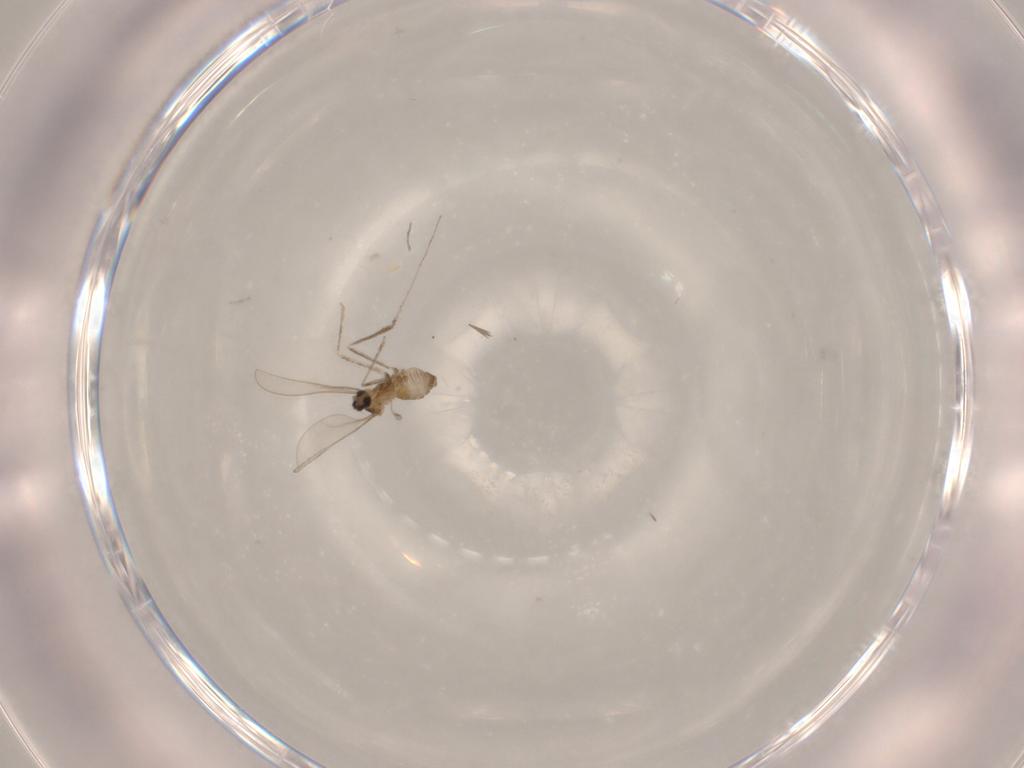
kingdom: Animalia
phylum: Arthropoda
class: Insecta
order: Diptera
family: Cecidomyiidae
